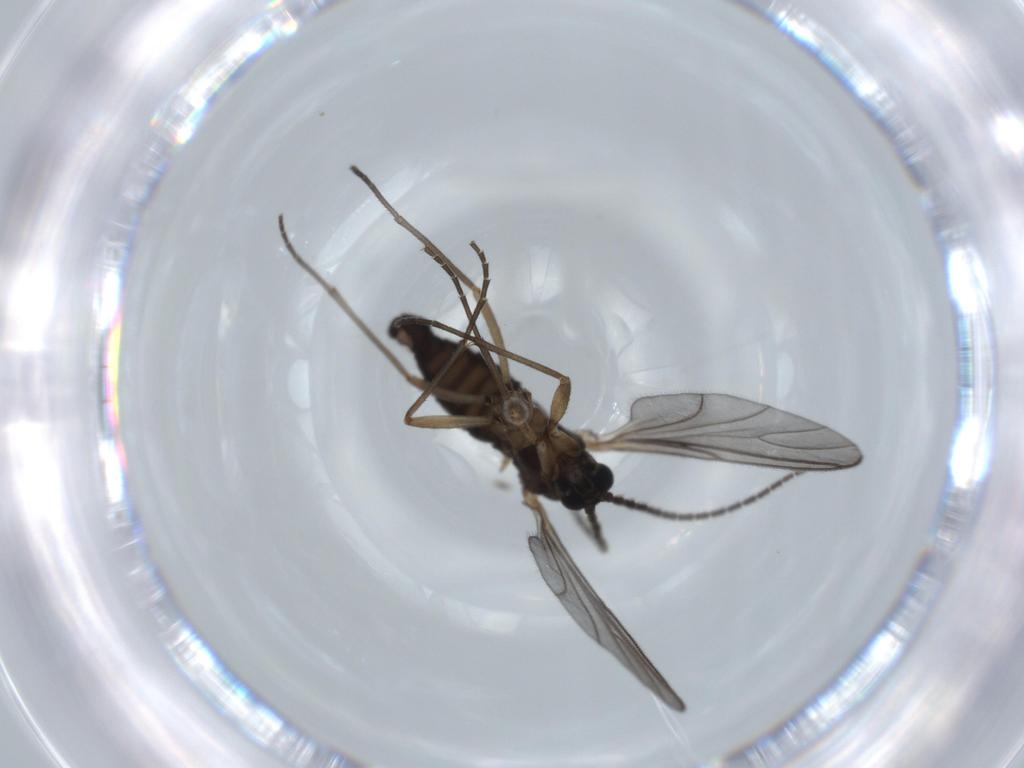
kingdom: Animalia
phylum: Arthropoda
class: Insecta
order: Diptera
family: Sciaridae
